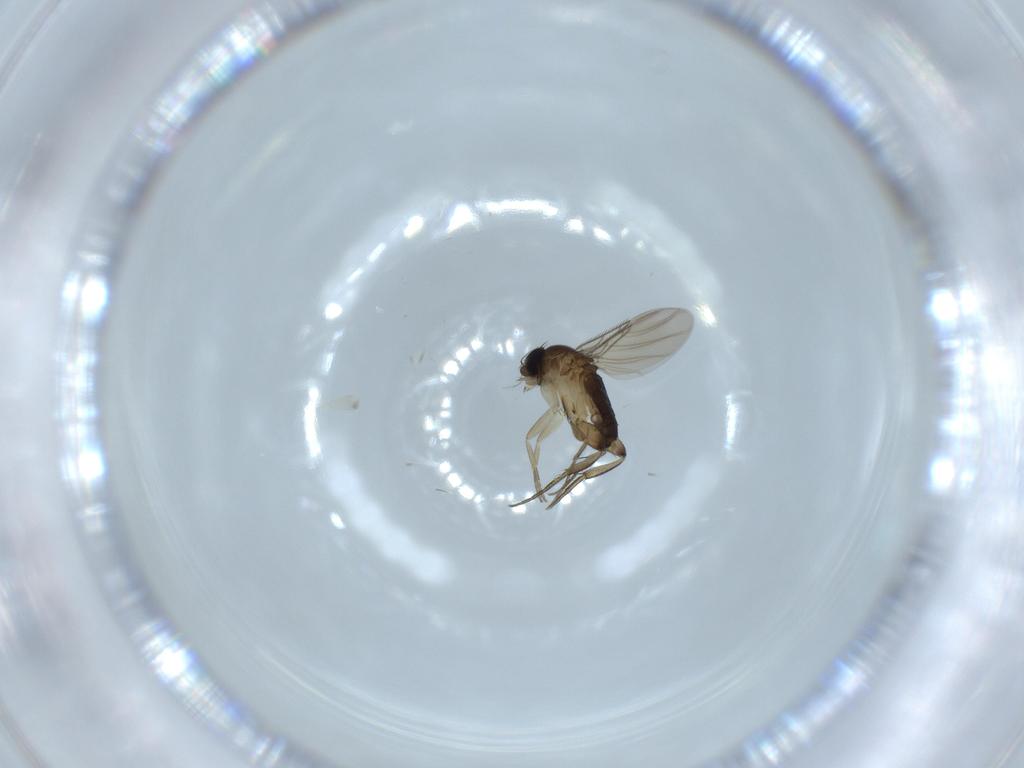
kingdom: Animalia
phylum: Arthropoda
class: Insecta
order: Diptera
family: Phoridae
